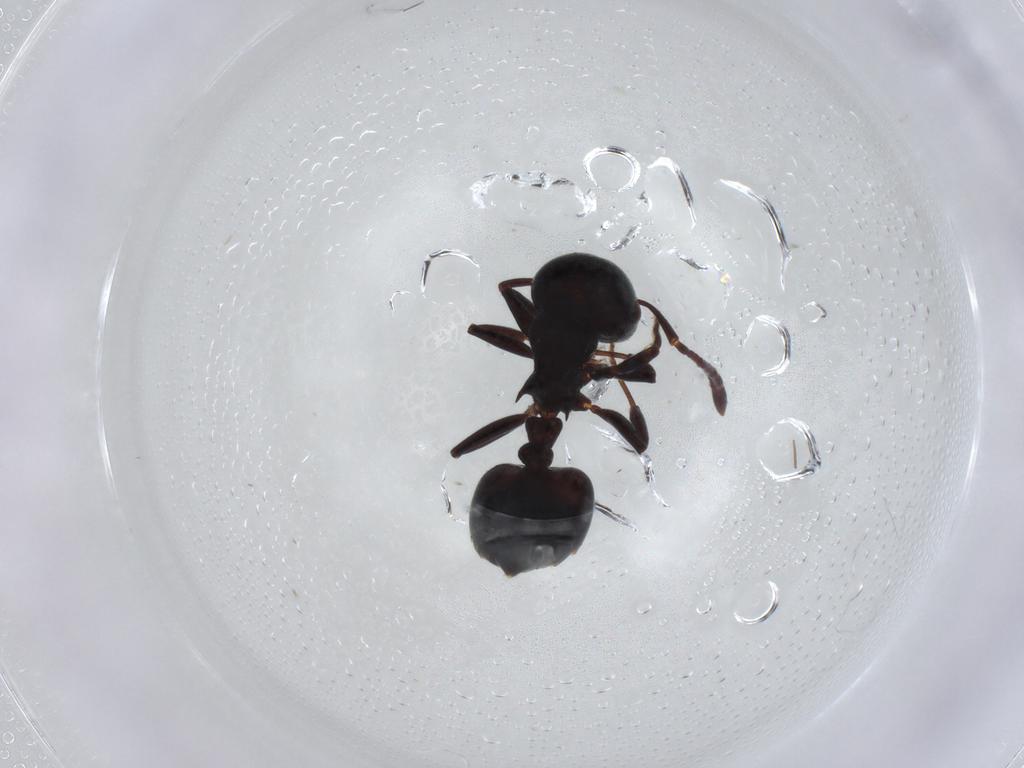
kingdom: Animalia
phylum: Arthropoda
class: Insecta
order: Hymenoptera
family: Formicidae
